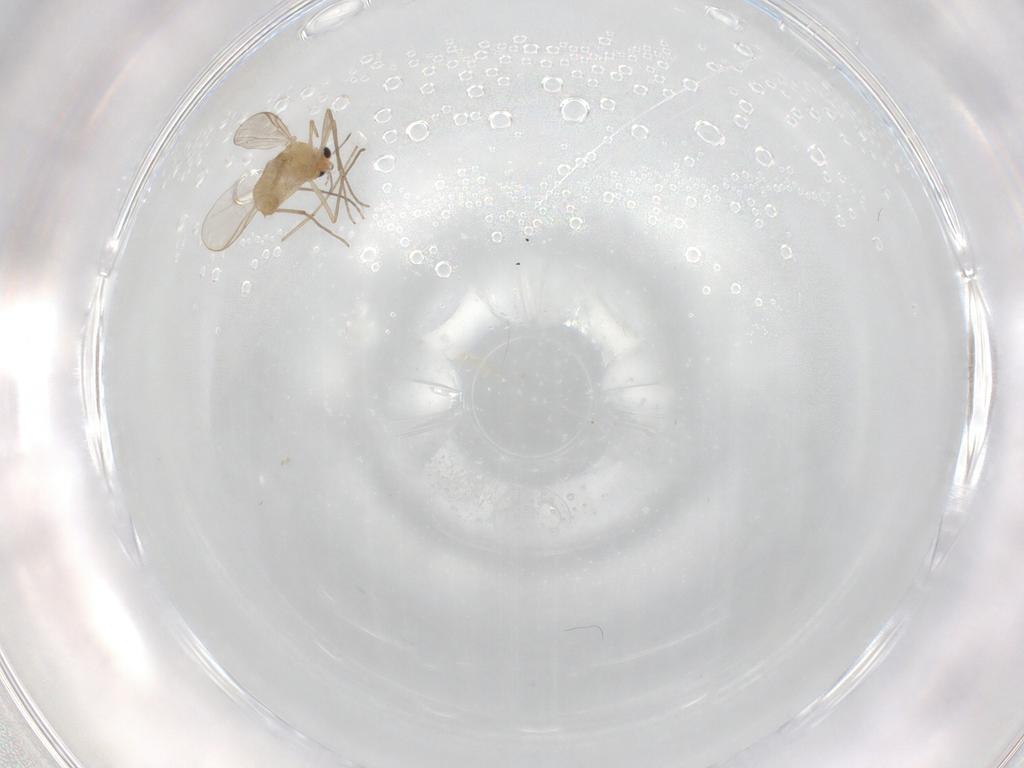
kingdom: Animalia
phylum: Arthropoda
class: Insecta
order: Diptera
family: Chironomidae
